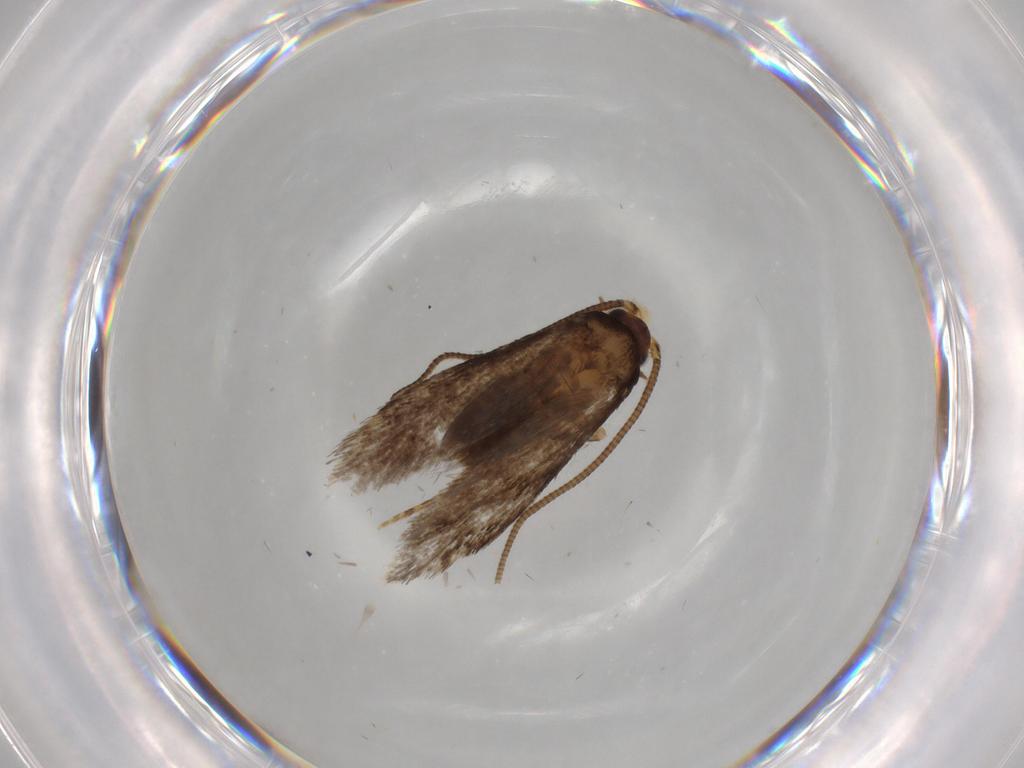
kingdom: Animalia
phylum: Arthropoda
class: Insecta
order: Lepidoptera
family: Tineidae
